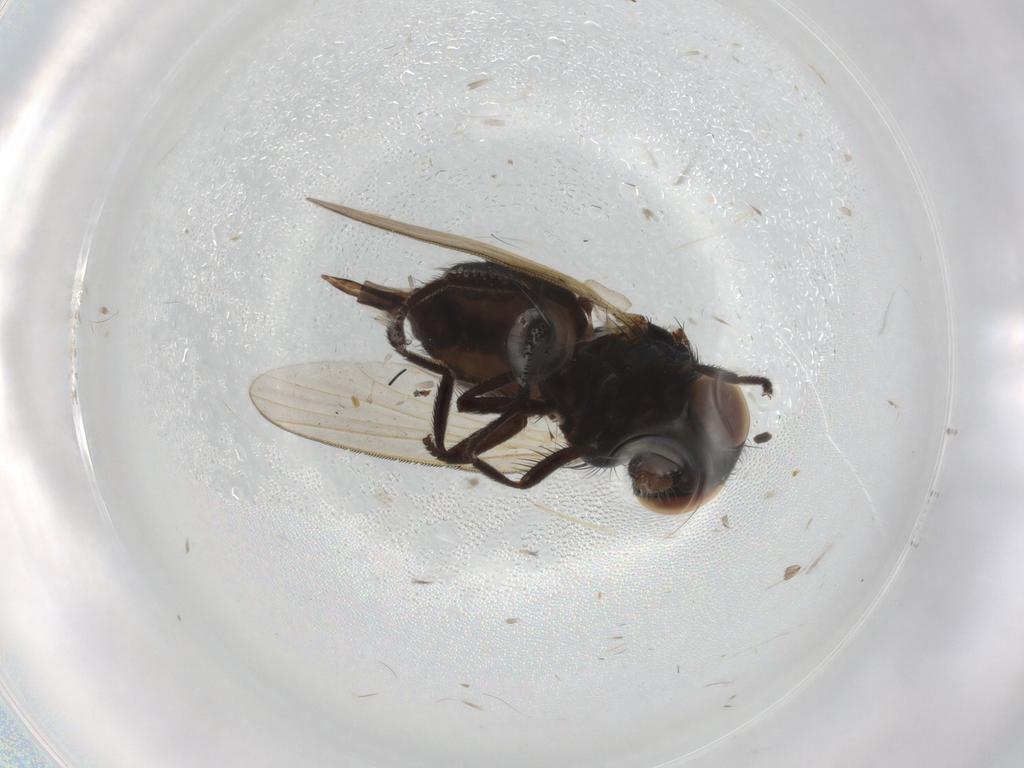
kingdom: Animalia
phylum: Arthropoda
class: Insecta
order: Diptera
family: Lonchaeidae
